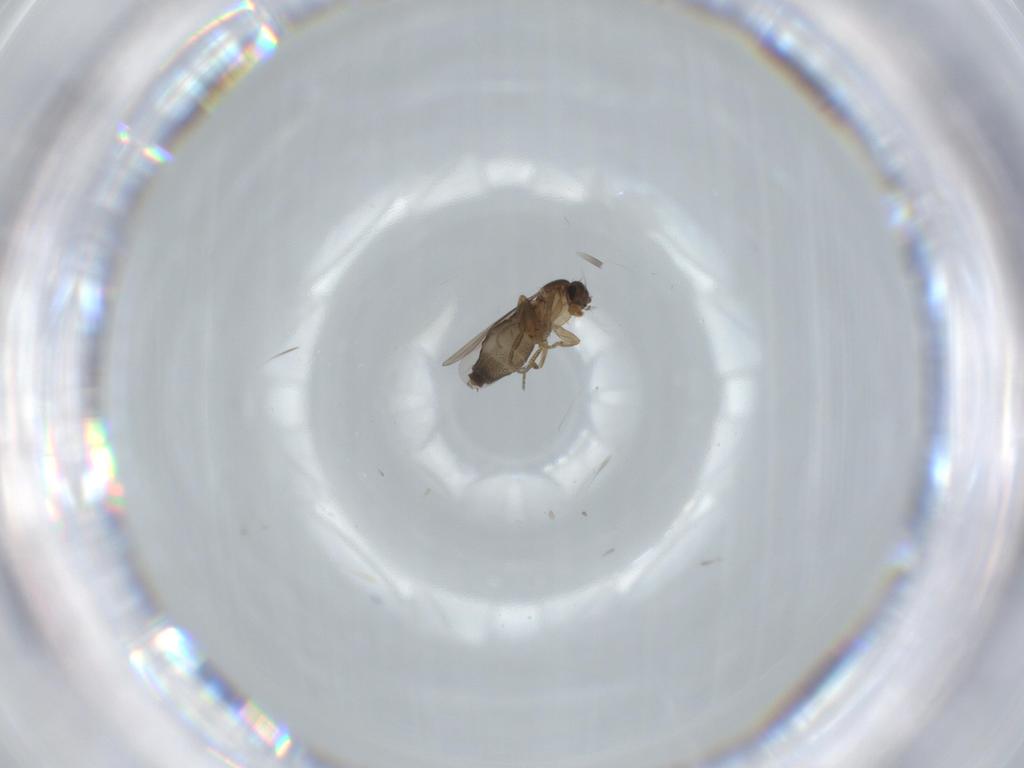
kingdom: Animalia
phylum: Arthropoda
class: Insecta
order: Diptera
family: Phoridae
